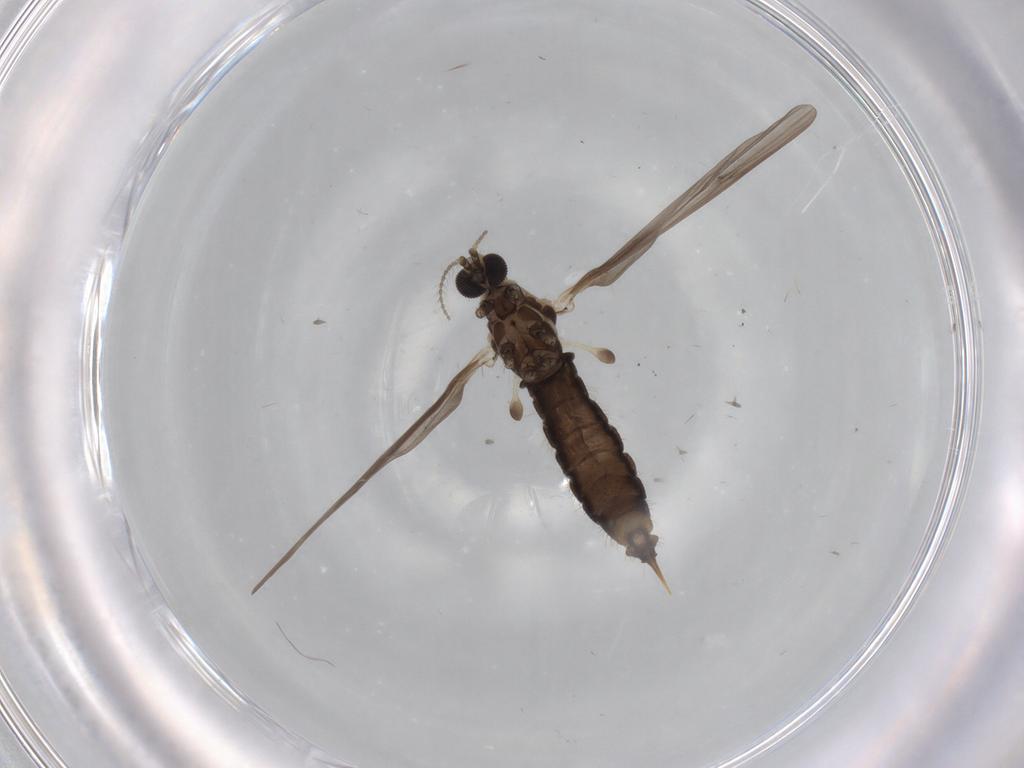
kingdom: Animalia
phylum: Arthropoda
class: Insecta
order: Diptera
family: Limoniidae
